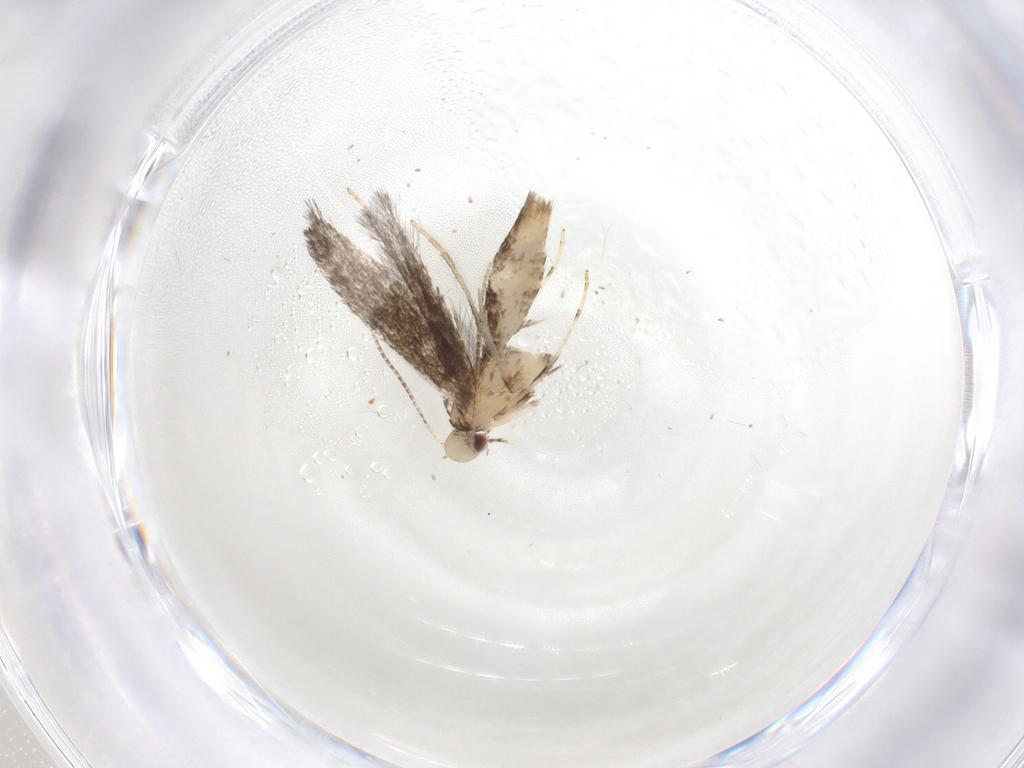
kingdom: Animalia
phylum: Arthropoda
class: Insecta
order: Lepidoptera
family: Gracillariidae
